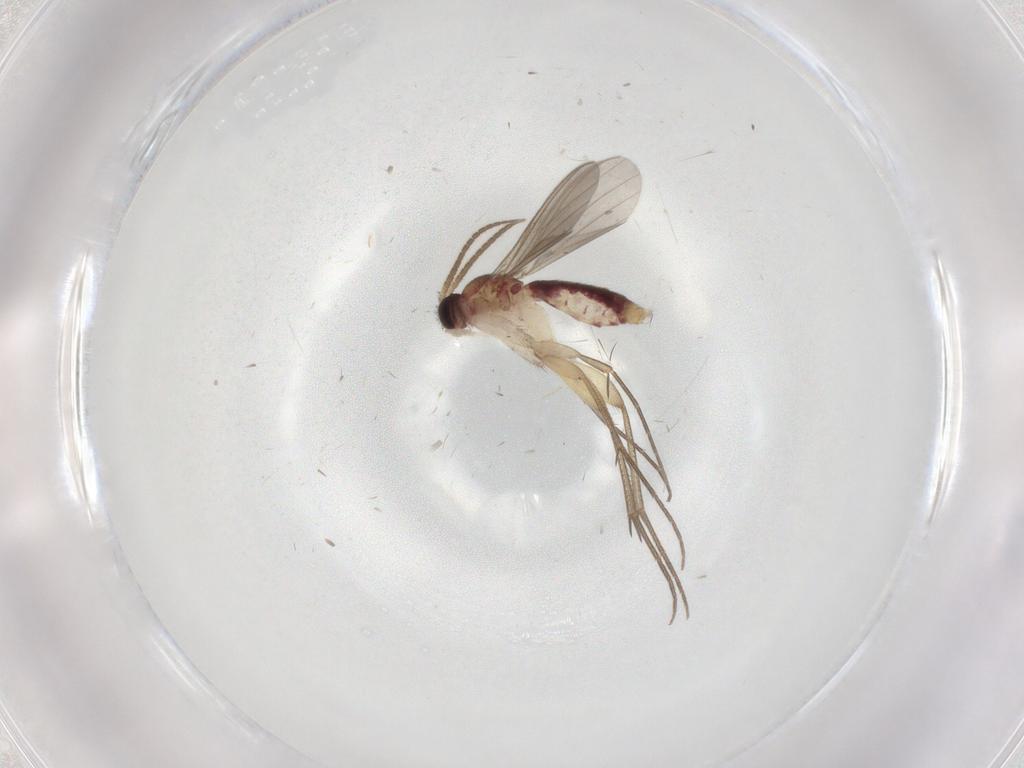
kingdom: Animalia
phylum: Arthropoda
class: Insecta
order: Diptera
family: Mycetophilidae
